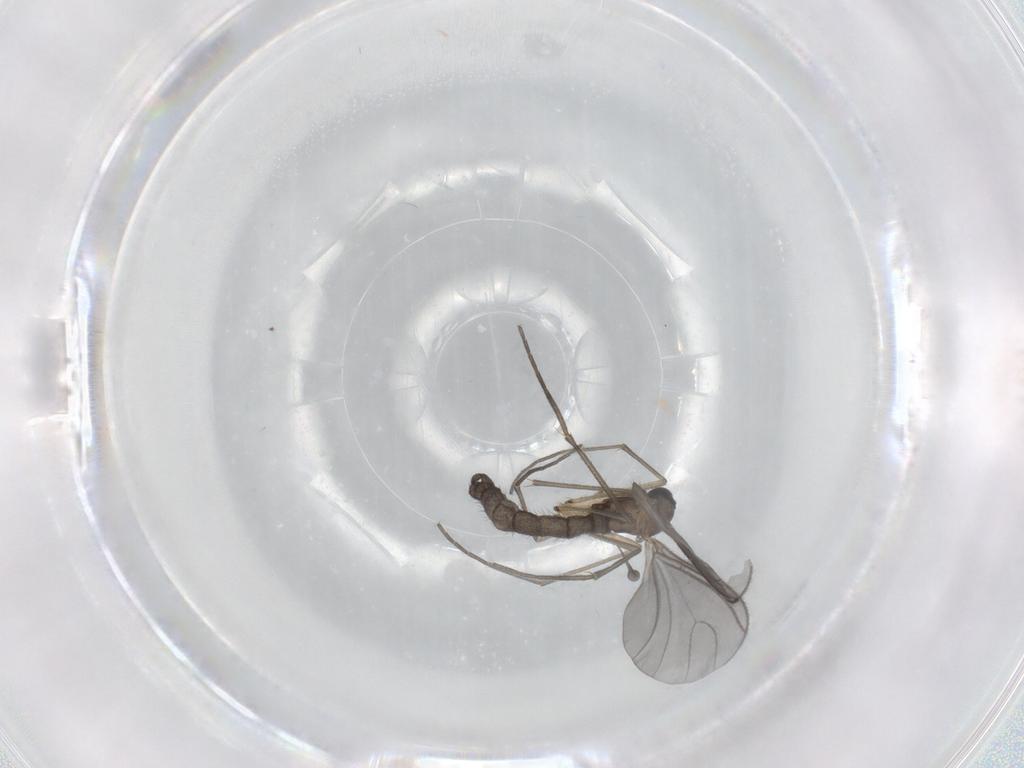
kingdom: Animalia
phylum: Arthropoda
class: Insecta
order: Diptera
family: Sciaridae
